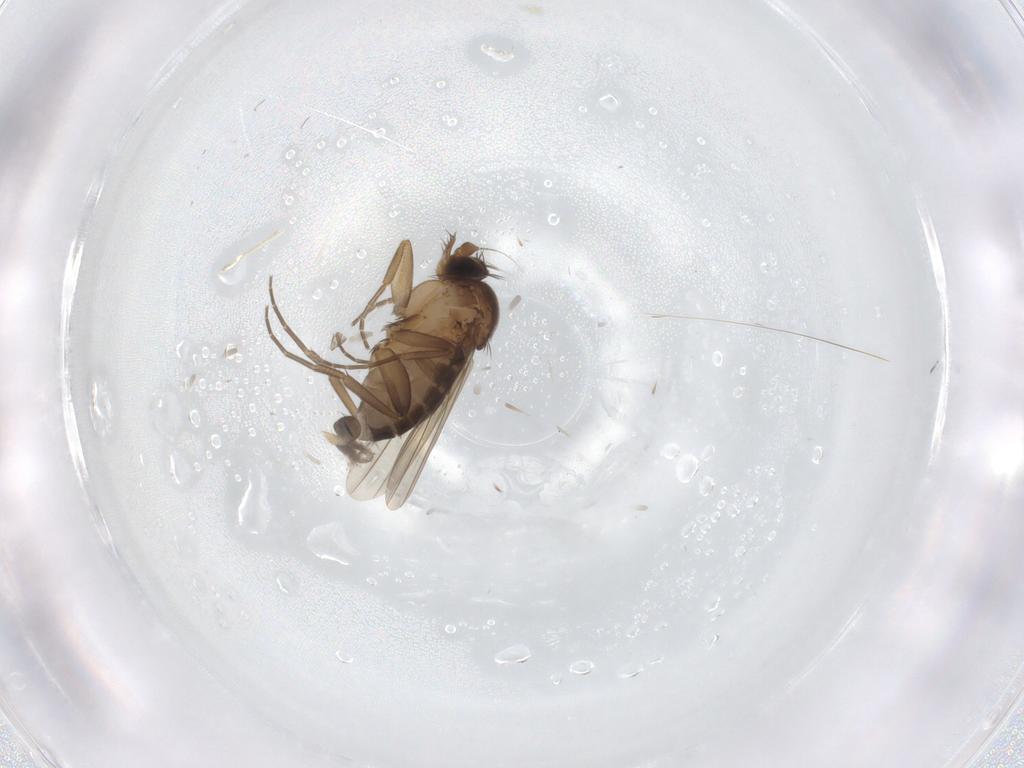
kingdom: Animalia
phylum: Arthropoda
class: Insecta
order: Diptera
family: Phoridae
